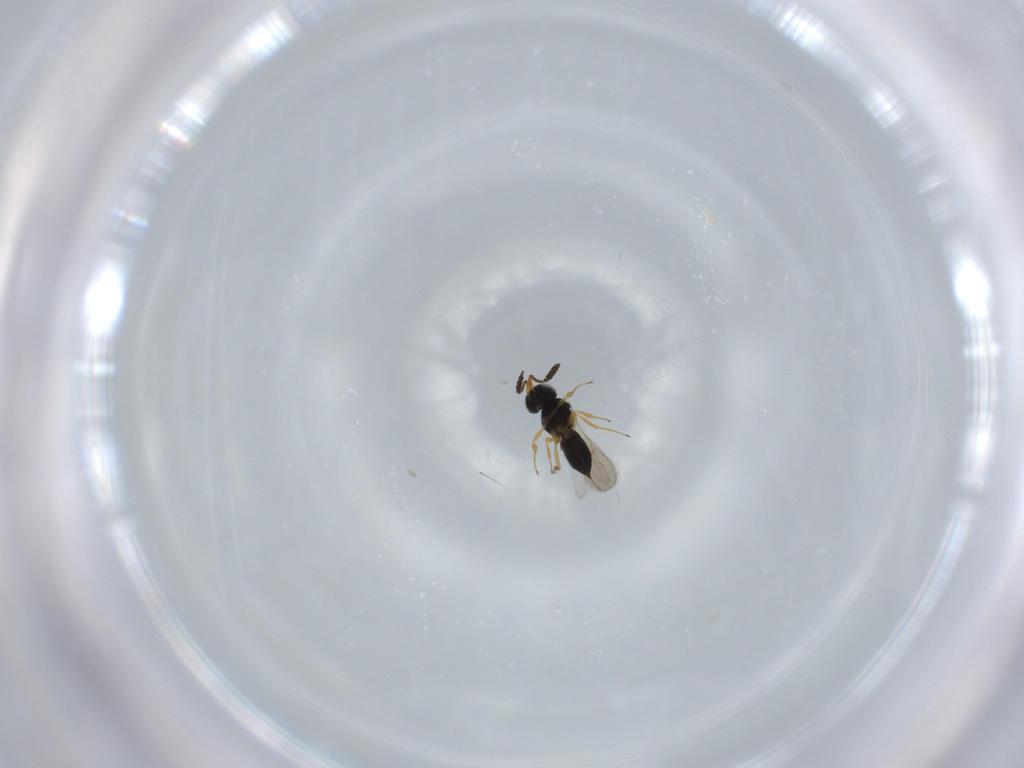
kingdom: Animalia
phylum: Arthropoda
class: Insecta
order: Hymenoptera
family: Scelionidae
